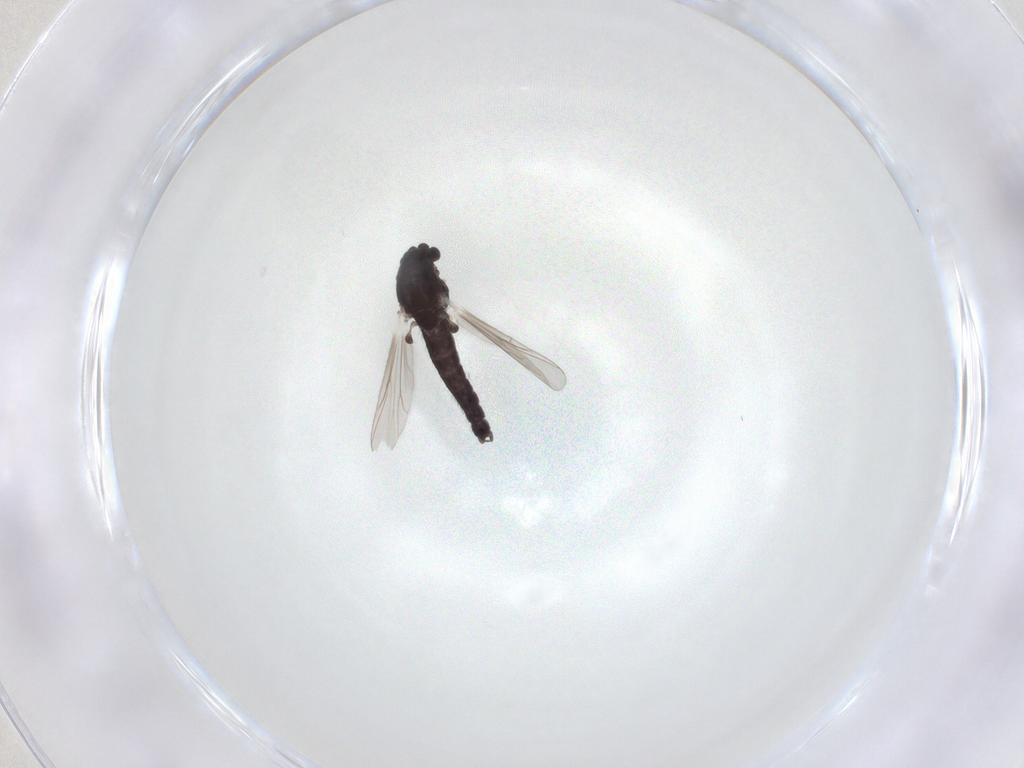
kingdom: Animalia
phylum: Arthropoda
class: Insecta
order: Diptera
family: Chironomidae
